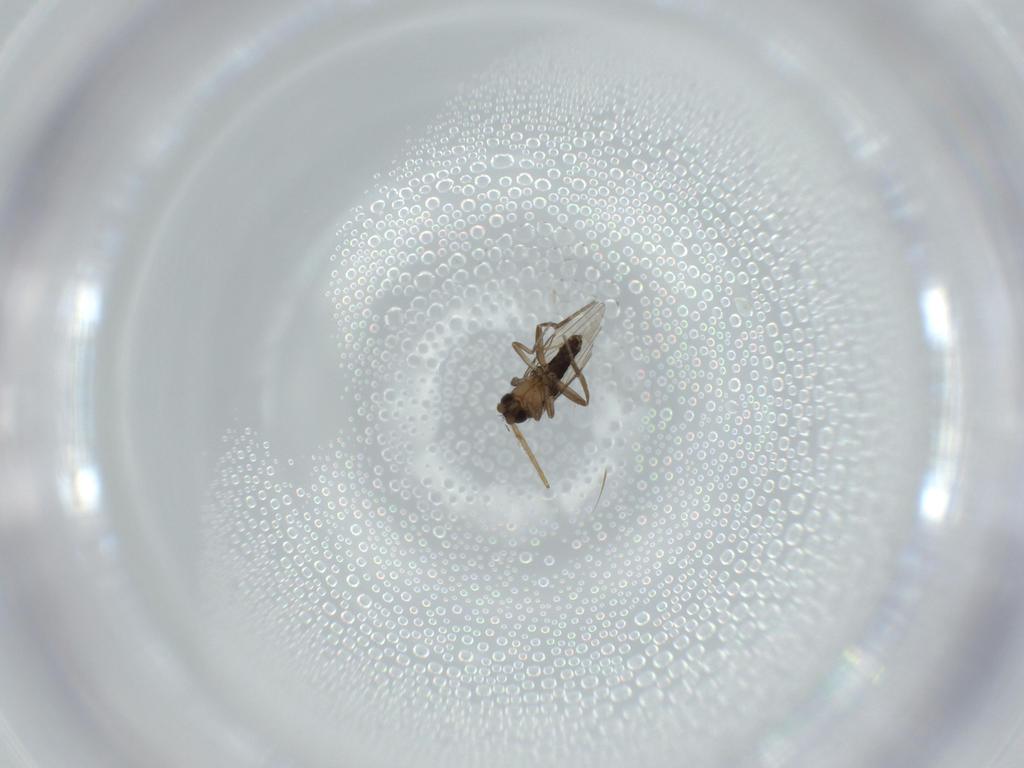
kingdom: Animalia
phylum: Arthropoda
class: Insecta
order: Diptera
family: Phoridae
